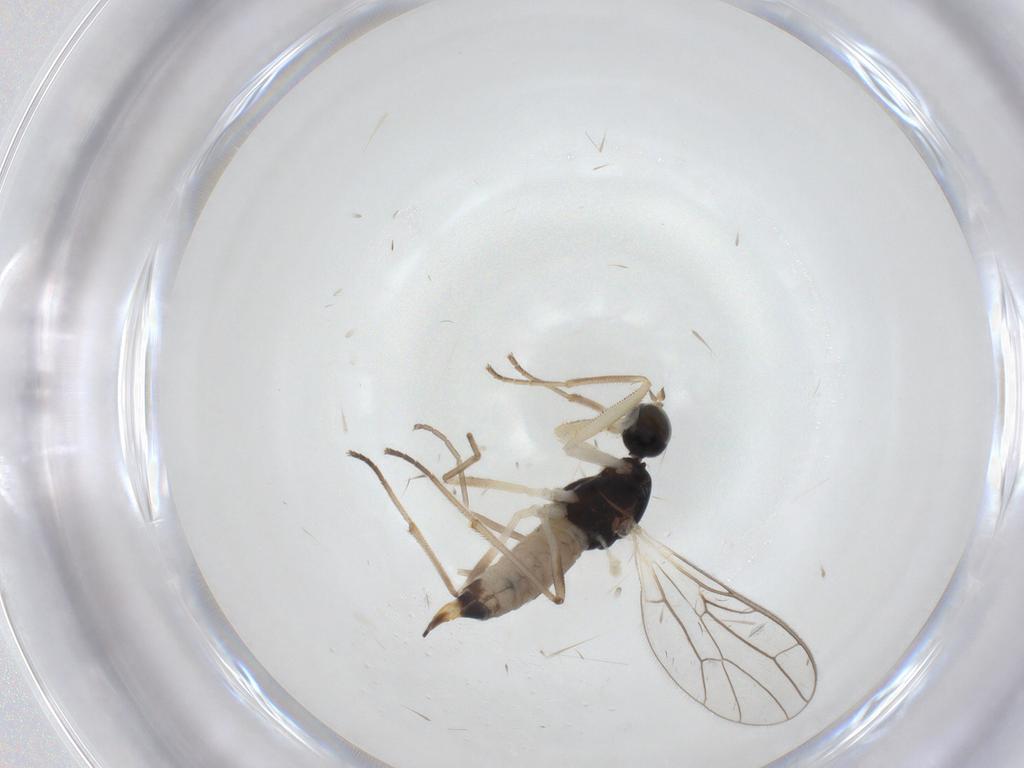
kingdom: Animalia
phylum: Arthropoda
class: Insecta
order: Diptera
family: Empididae
